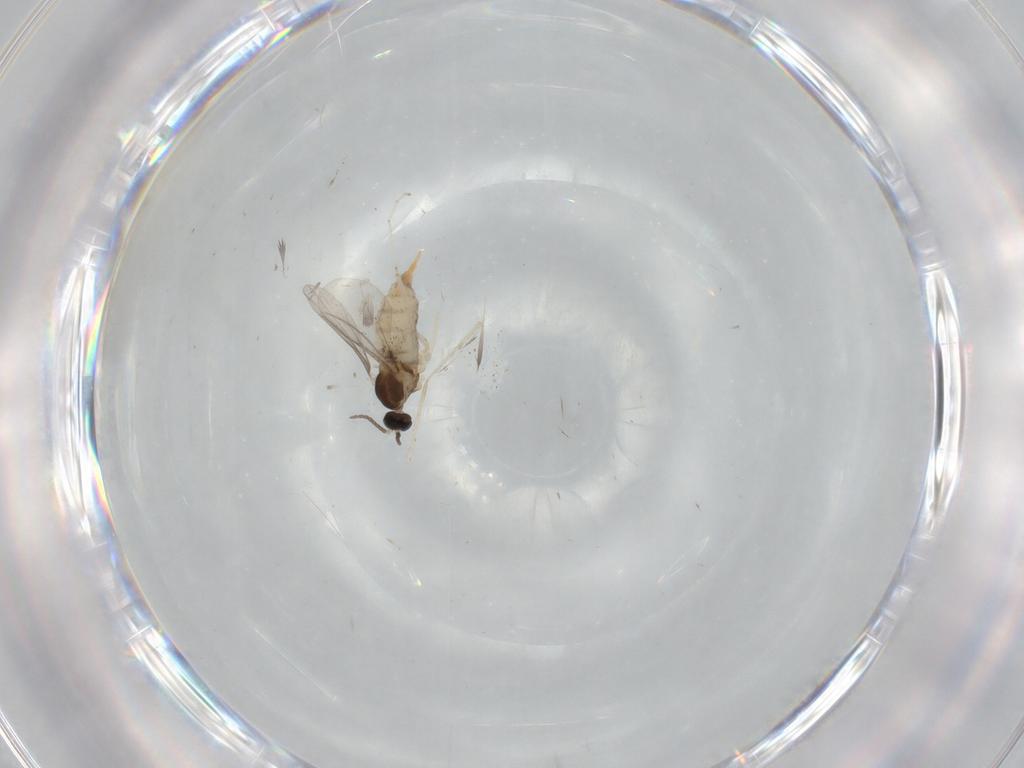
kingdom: Animalia
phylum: Arthropoda
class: Insecta
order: Diptera
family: Cecidomyiidae
